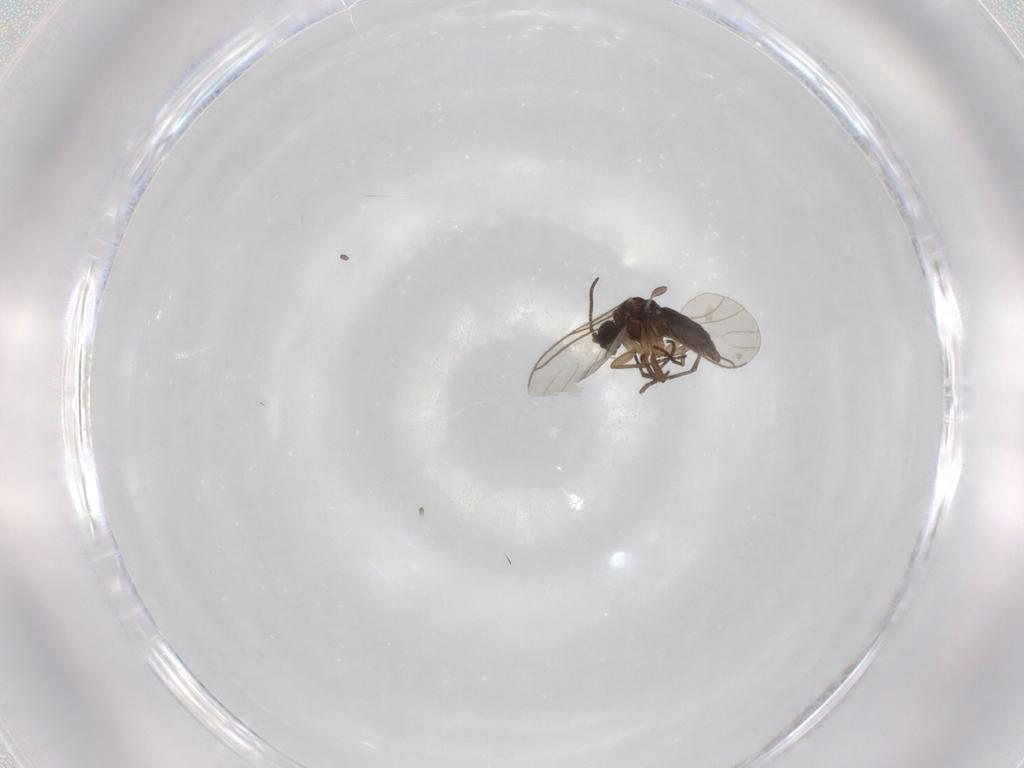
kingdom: Animalia
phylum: Arthropoda
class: Insecta
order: Diptera
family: Sciaridae
